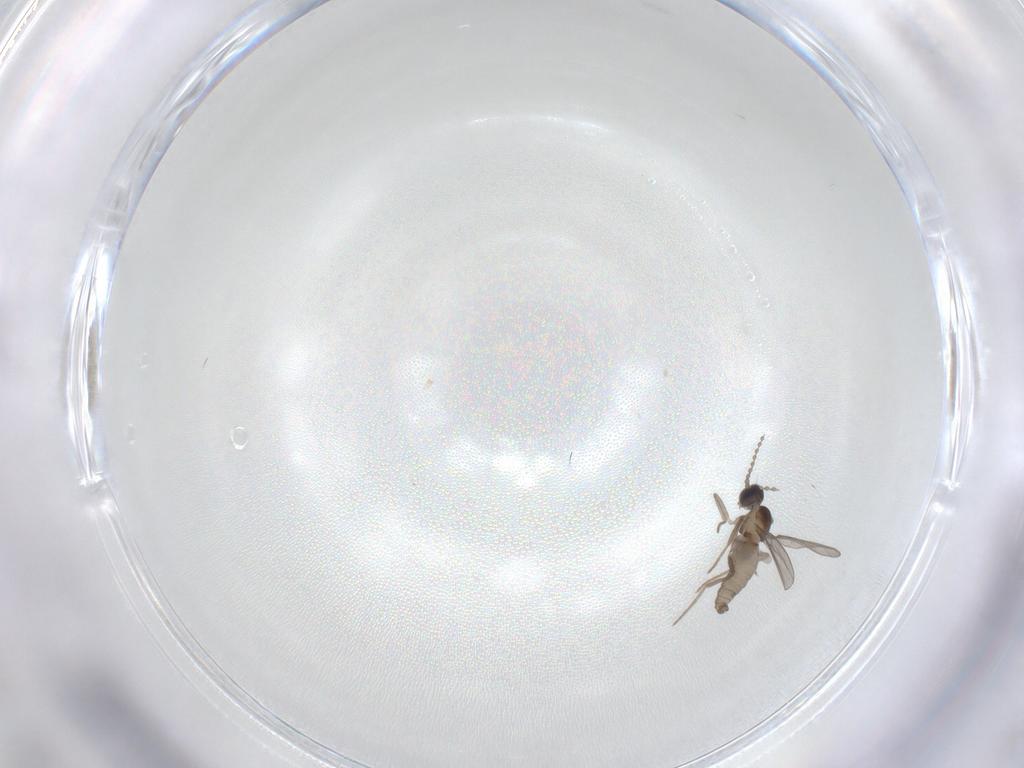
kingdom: Animalia
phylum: Arthropoda
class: Insecta
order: Diptera
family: Cecidomyiidae
